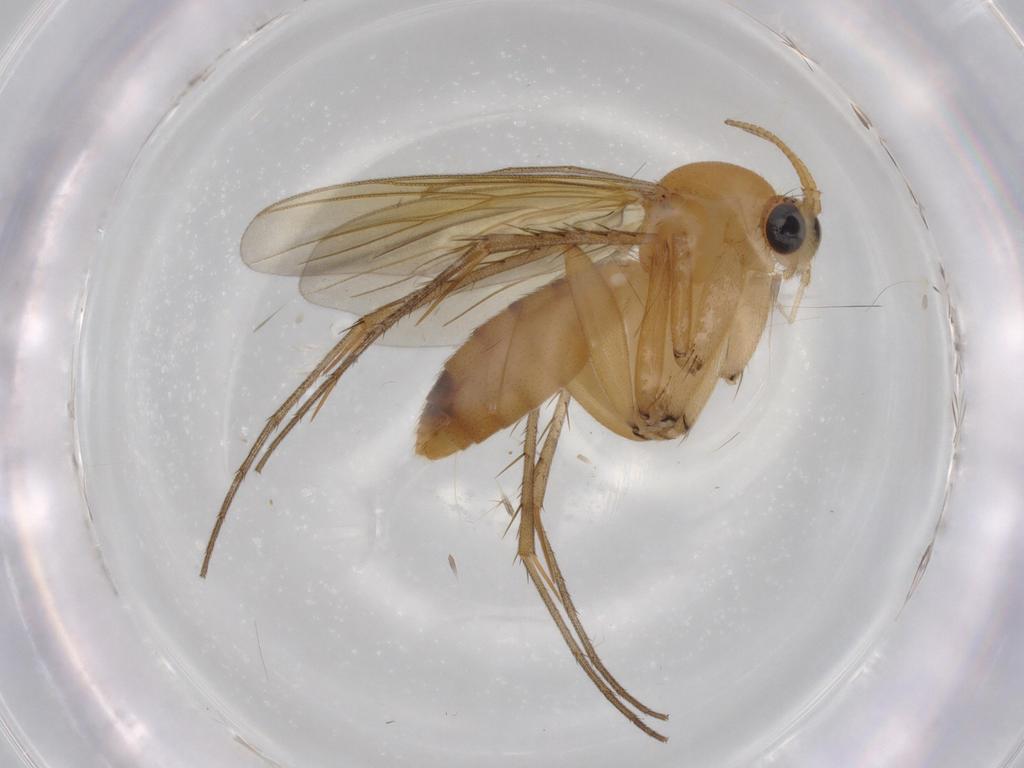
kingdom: Animalia
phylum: Arthropoda
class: Insecta
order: Diptera
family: Mycetophilidae
